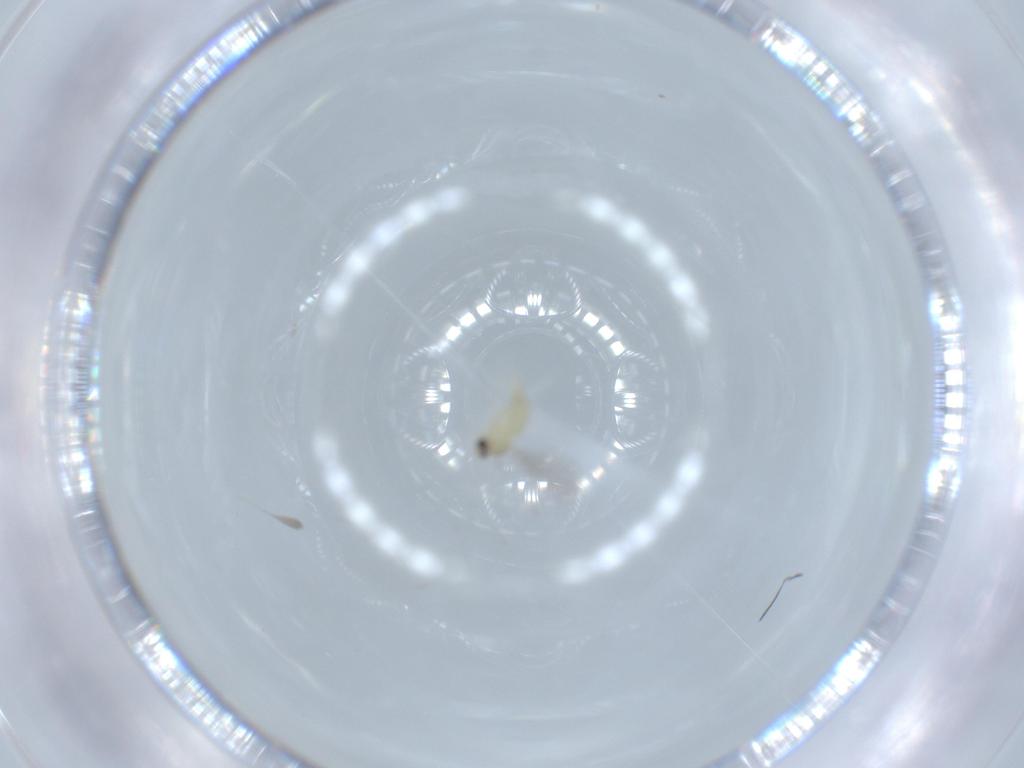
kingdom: Animalia
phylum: Arthropoda
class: Insecta
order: Diptera
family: Cecidomyiidae
